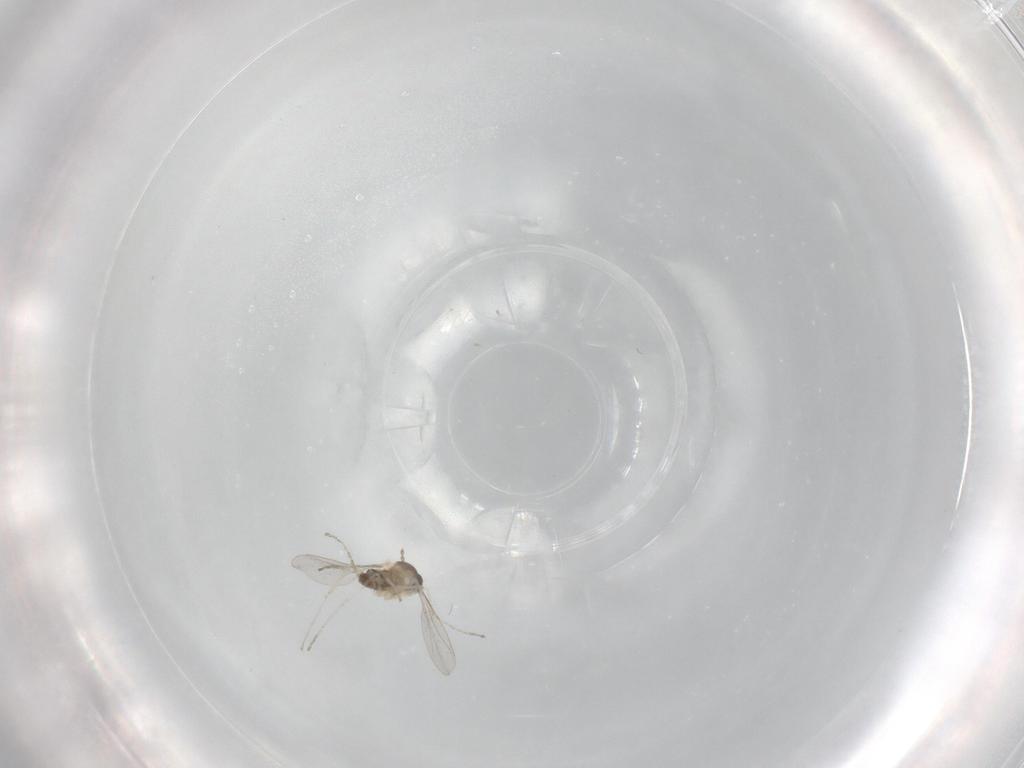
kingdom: Animalia
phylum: Arthropoda
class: Insecta
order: Diptera
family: Cecidomyiidae
